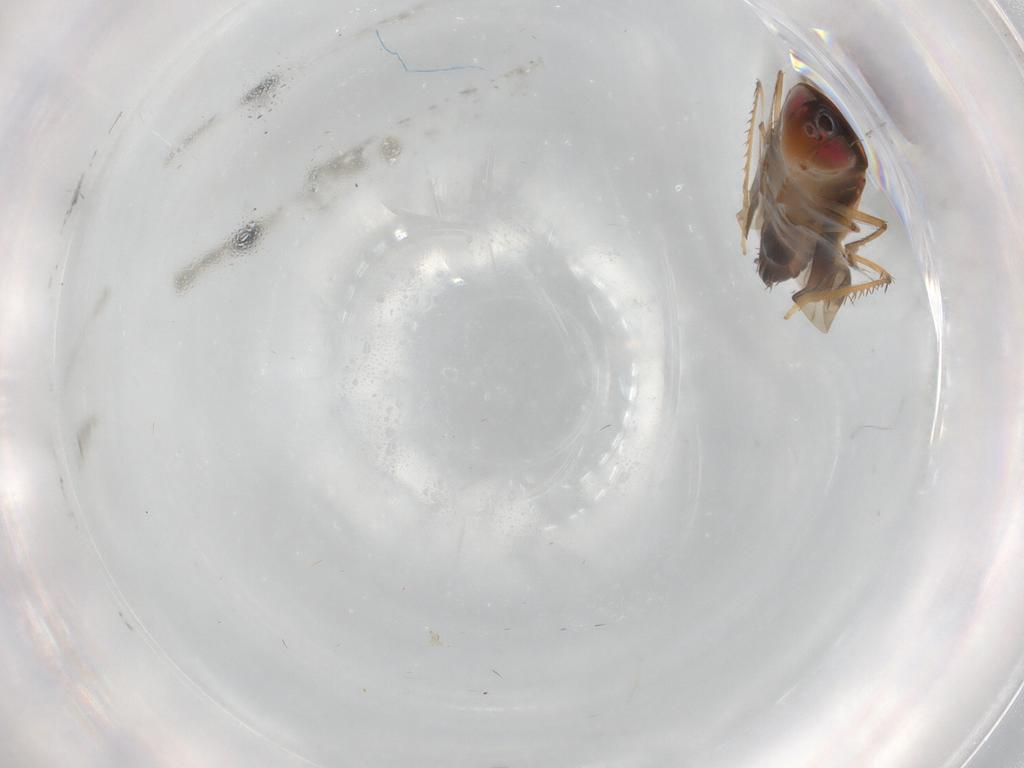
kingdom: Animalia
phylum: Arthropoda
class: Insecta
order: Hemiptera
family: Cicadellidae
